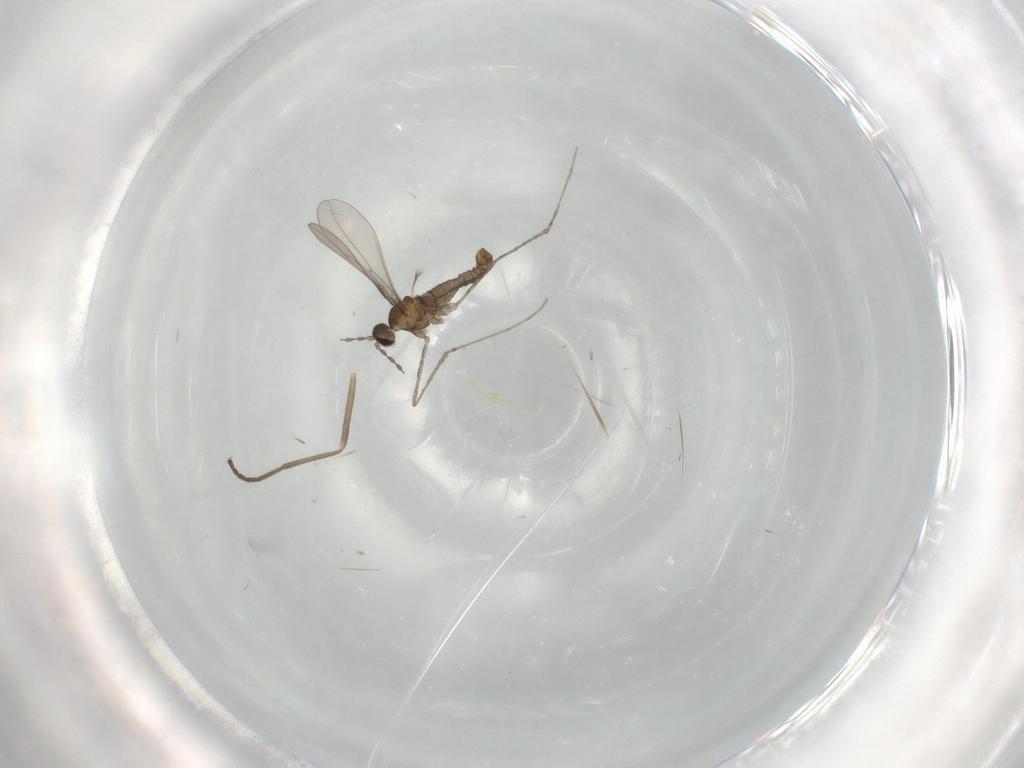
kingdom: Animalia
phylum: Arthropoda
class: Insecta
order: Diptera
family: Cecidomyiidae
